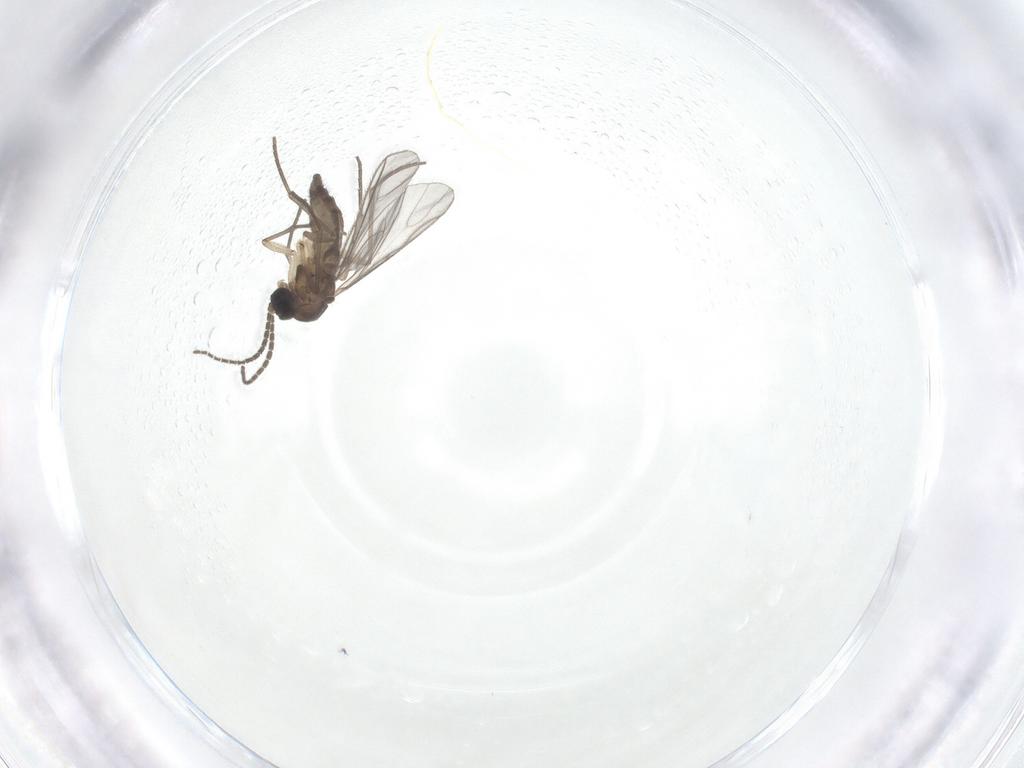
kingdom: Animalia
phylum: Arthropoda
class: Insecta
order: Diptera
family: Sciaridae
